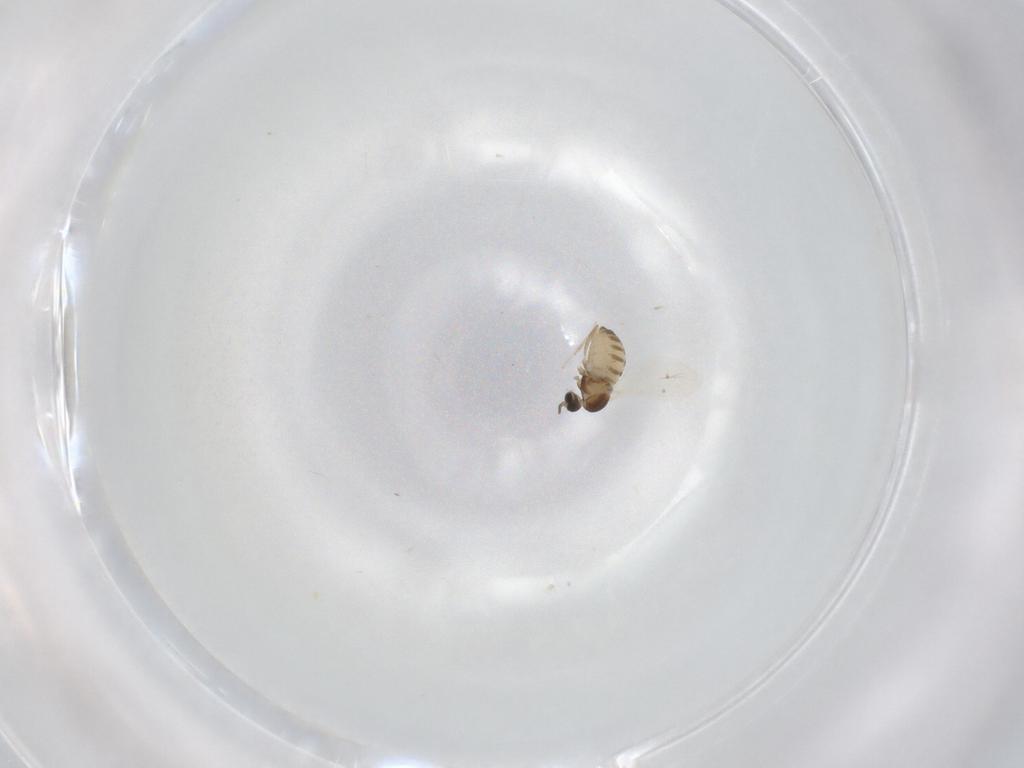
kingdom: Animalia
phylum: Arthropoda
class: Insecta
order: Diptera
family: Cecidomyiidae
